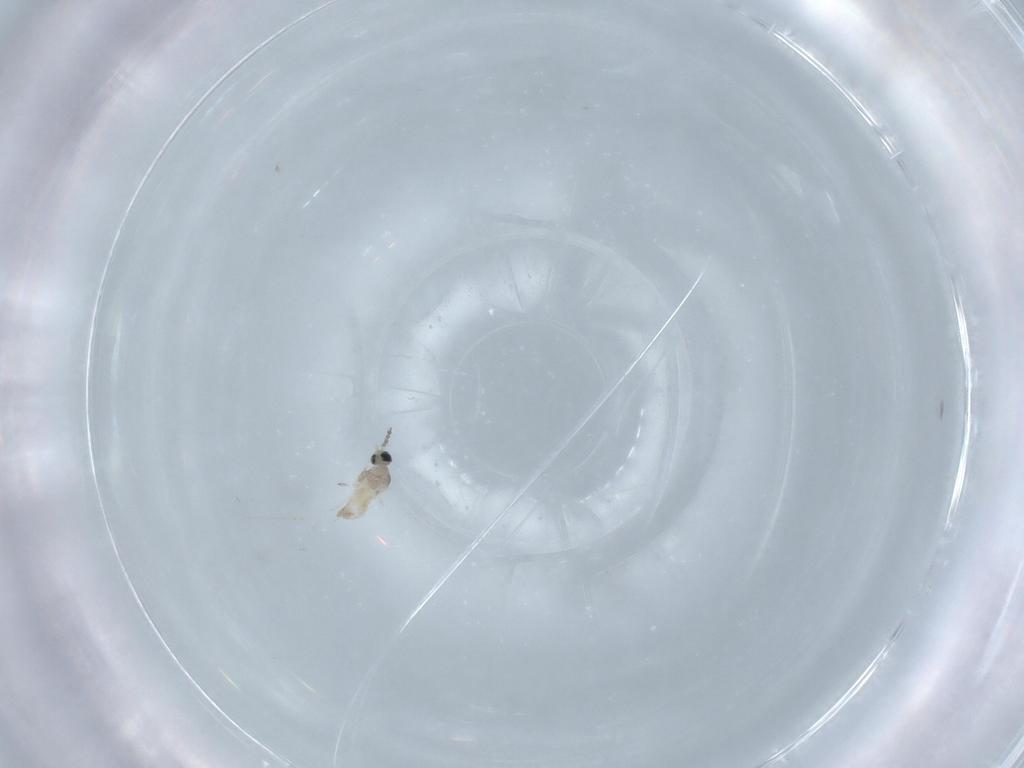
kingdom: Animalia
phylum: Arthropoda
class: Insecta
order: Diptera
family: Cecidomyiidae
